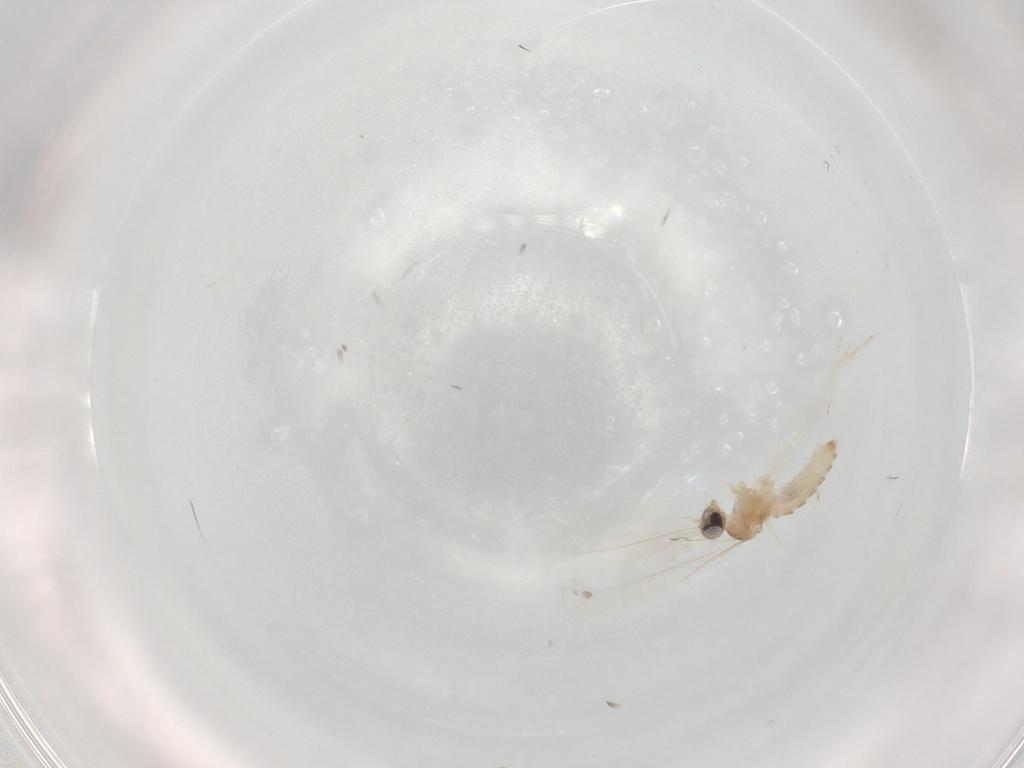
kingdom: Animalia
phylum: Arthropoda
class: Insecta
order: Diptera
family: Cecidomyiidae
